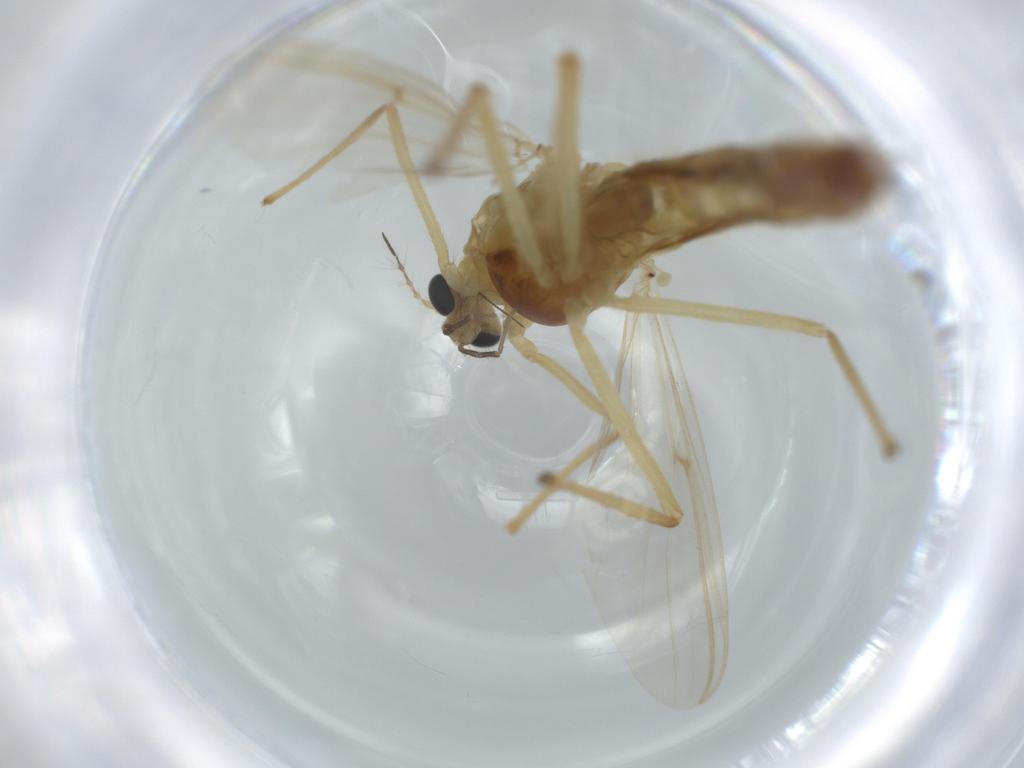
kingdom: Animalia
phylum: Arthropoda
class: Insecta
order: Diptera
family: Chironomidae
